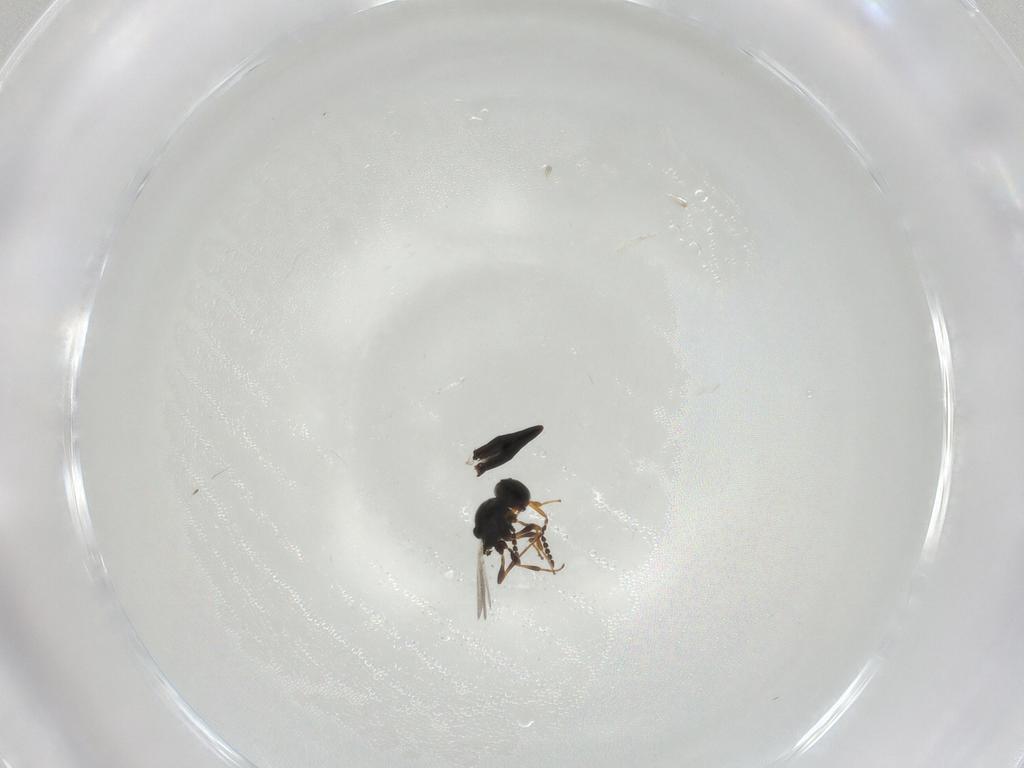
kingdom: Animalia
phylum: Arthropoda
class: Insecta
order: Hymenoptera
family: Platygastridae
